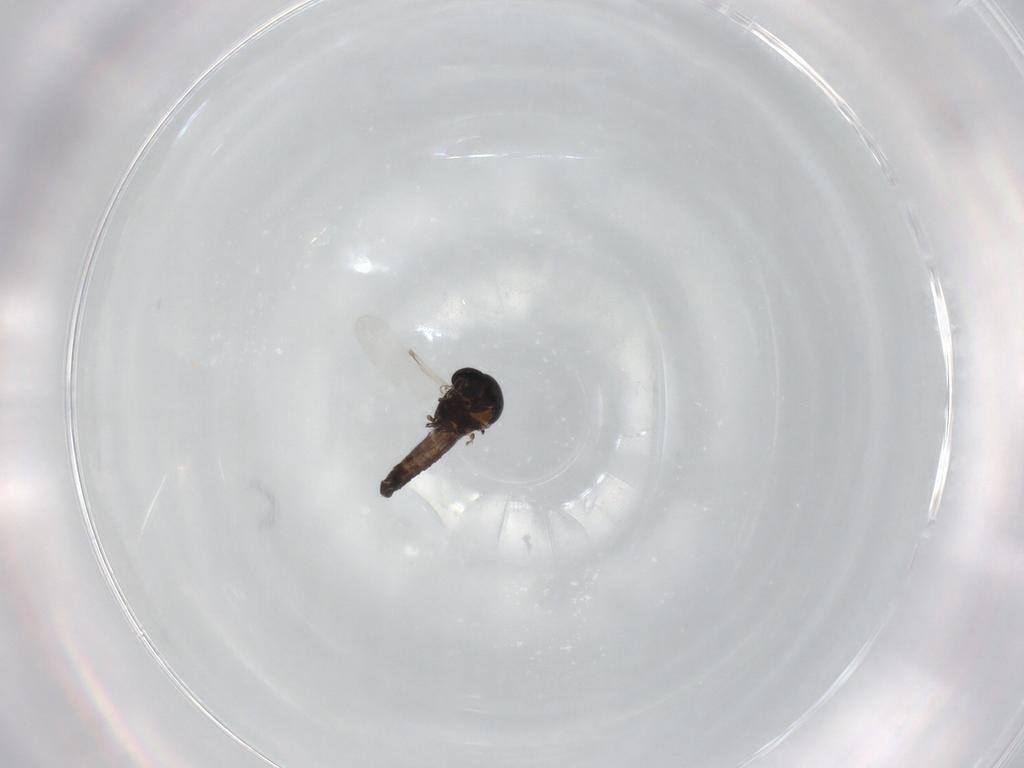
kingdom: Animalia
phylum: Arthropoda
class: Insecta
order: Diptera
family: Ceratopogonidae
